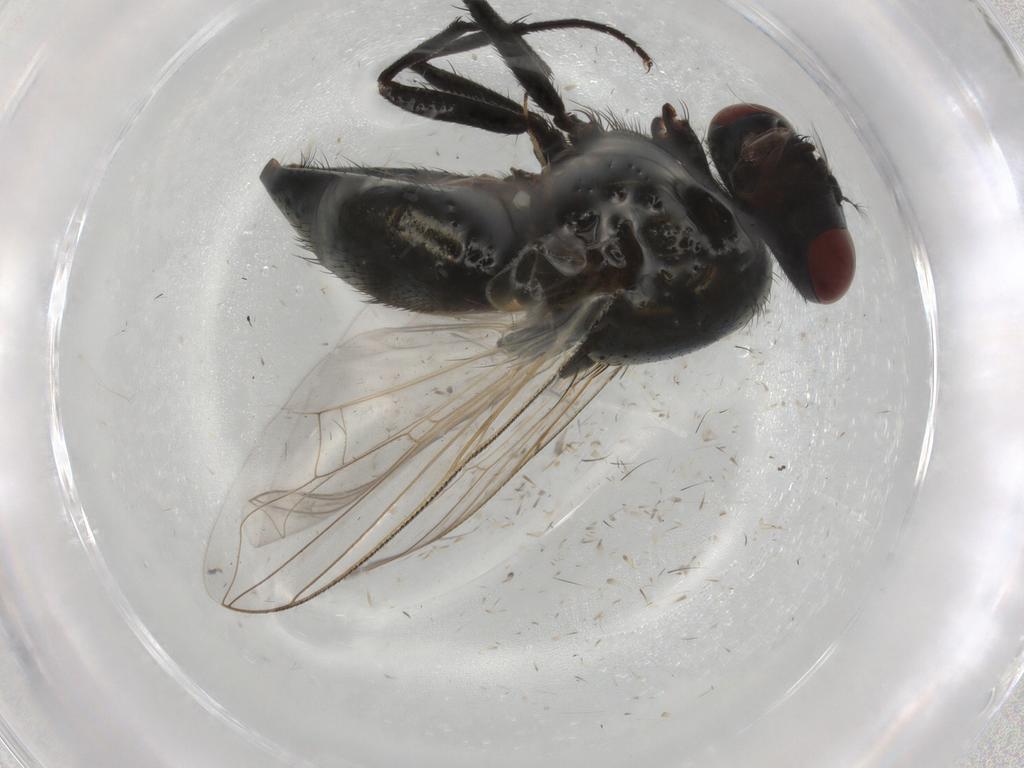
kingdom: Animalia
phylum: Arthropoda
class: Insecta
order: Diptera
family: Muscidae
